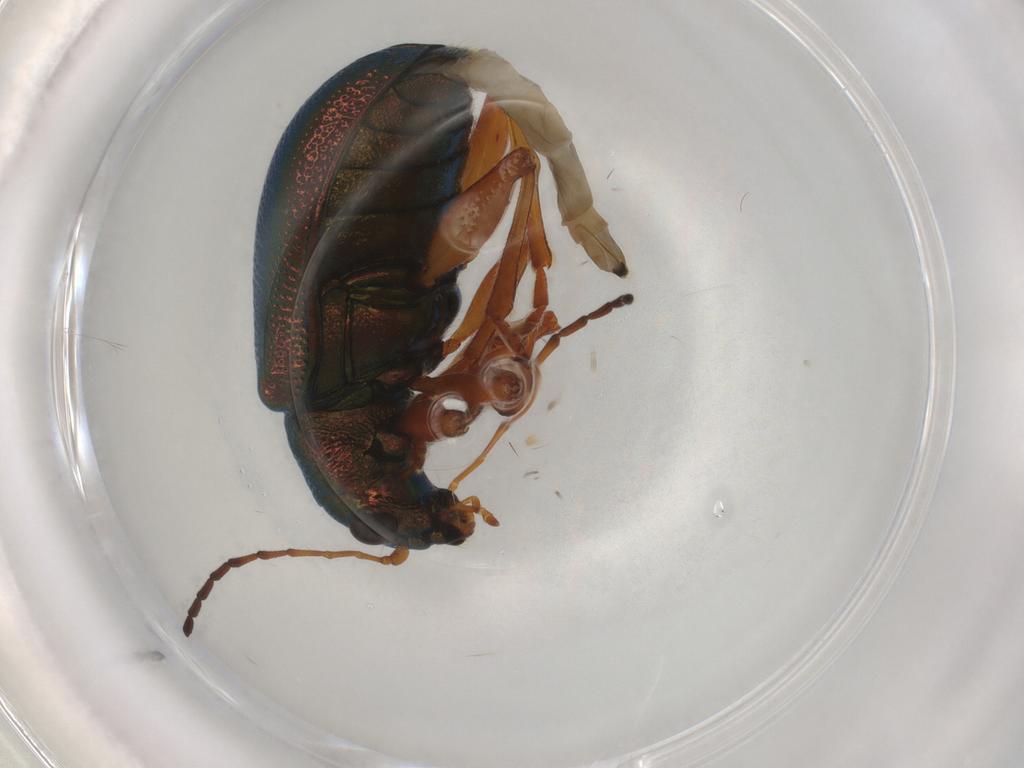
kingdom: Animalia
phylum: Arthropoda
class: Insecta
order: Coleoptera
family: Chrysomelidae
